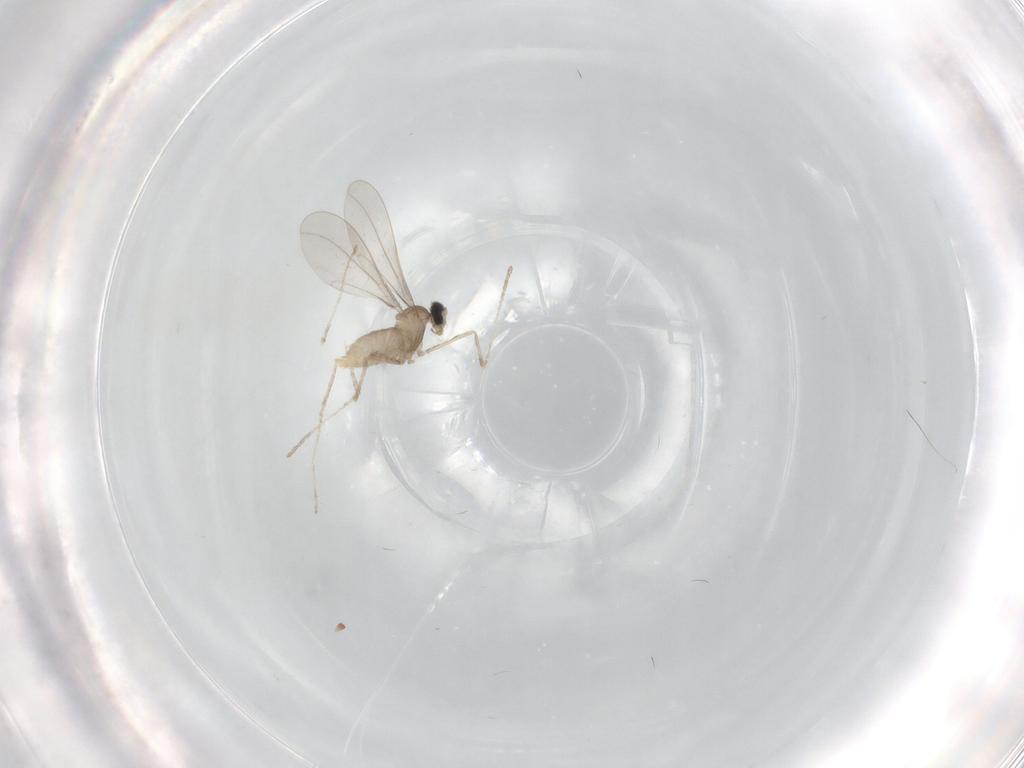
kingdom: Animalia
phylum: Arthropoda
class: Insecta
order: Diptera
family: Cecidomyiidae
